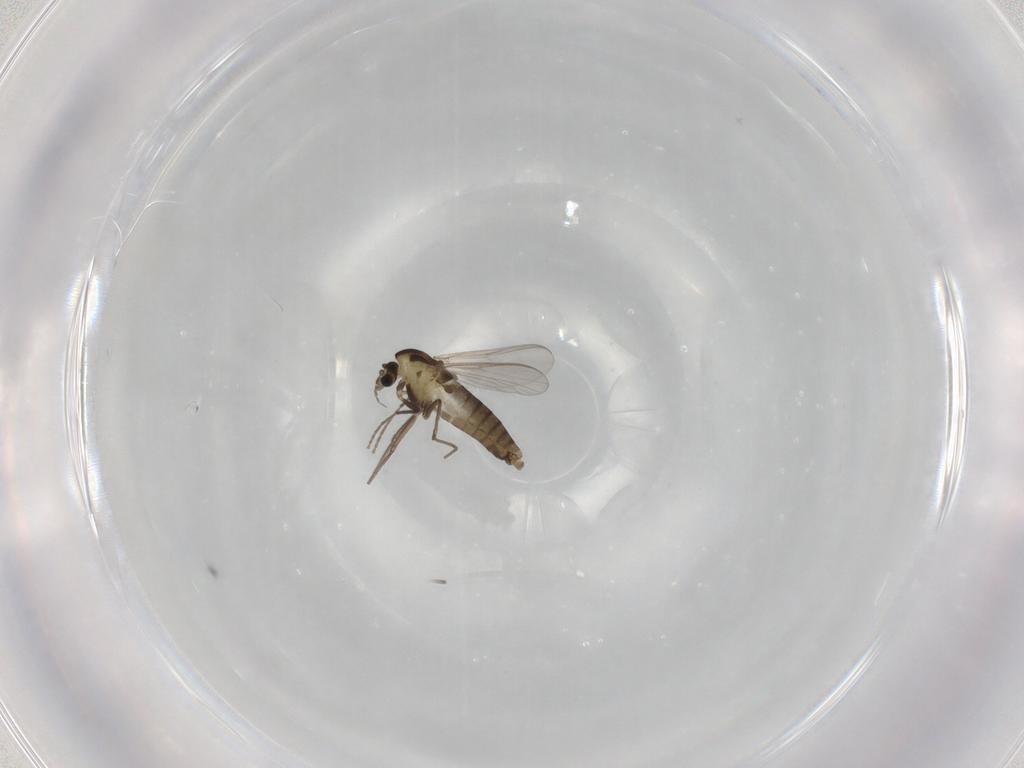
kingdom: Animalia
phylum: Arthropoda
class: Insecta
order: Diptera
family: Chironomidae
